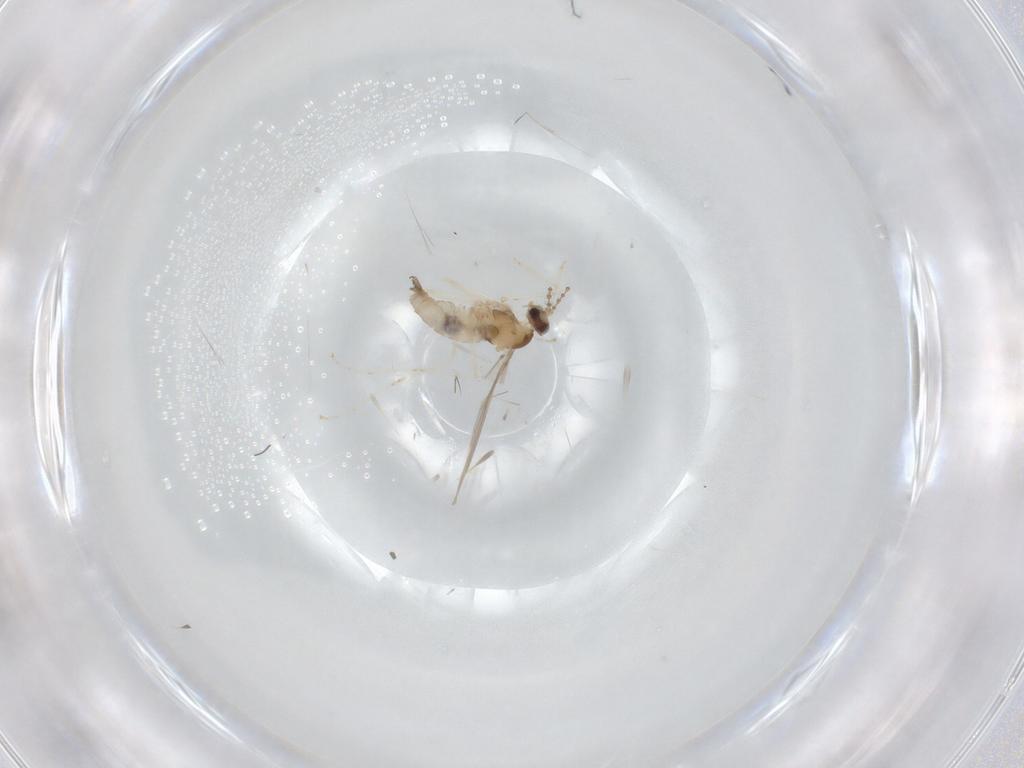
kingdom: Animalia
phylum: Arthropoda
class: Insecta
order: Diptera
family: Cecidomyiidae
